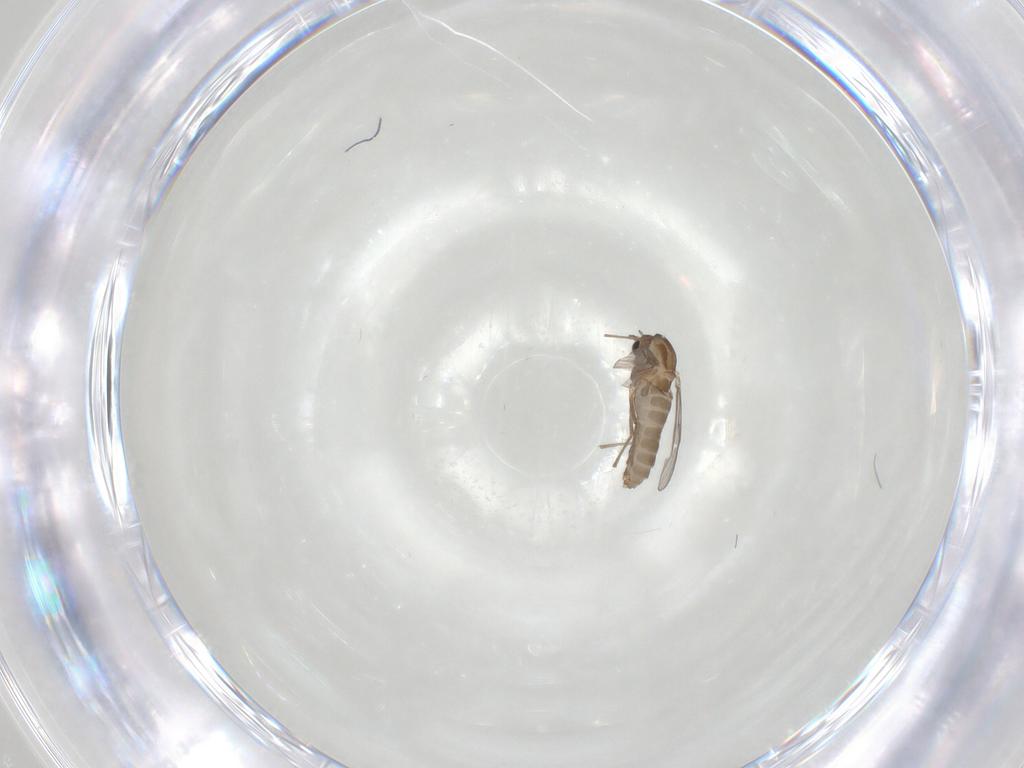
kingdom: Animalia
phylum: Arthropoda
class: Insecta
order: Diptera
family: Chironomidae
